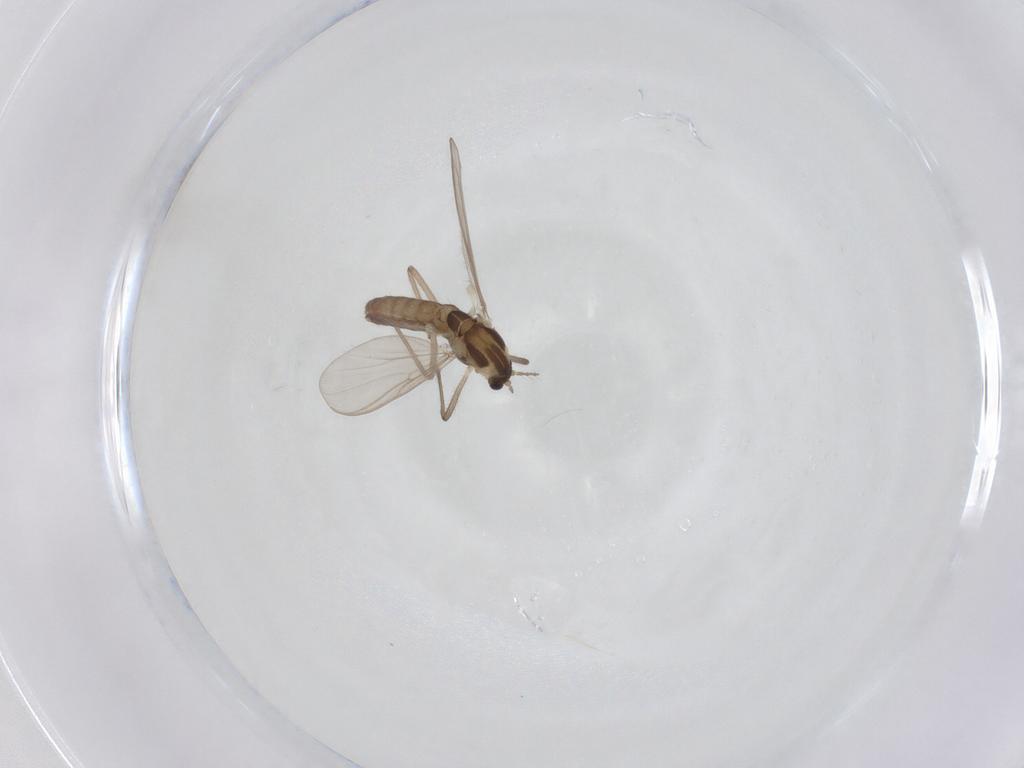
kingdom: Animalia
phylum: Arthropoda
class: Insecta
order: Diptera
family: Chironomidae
